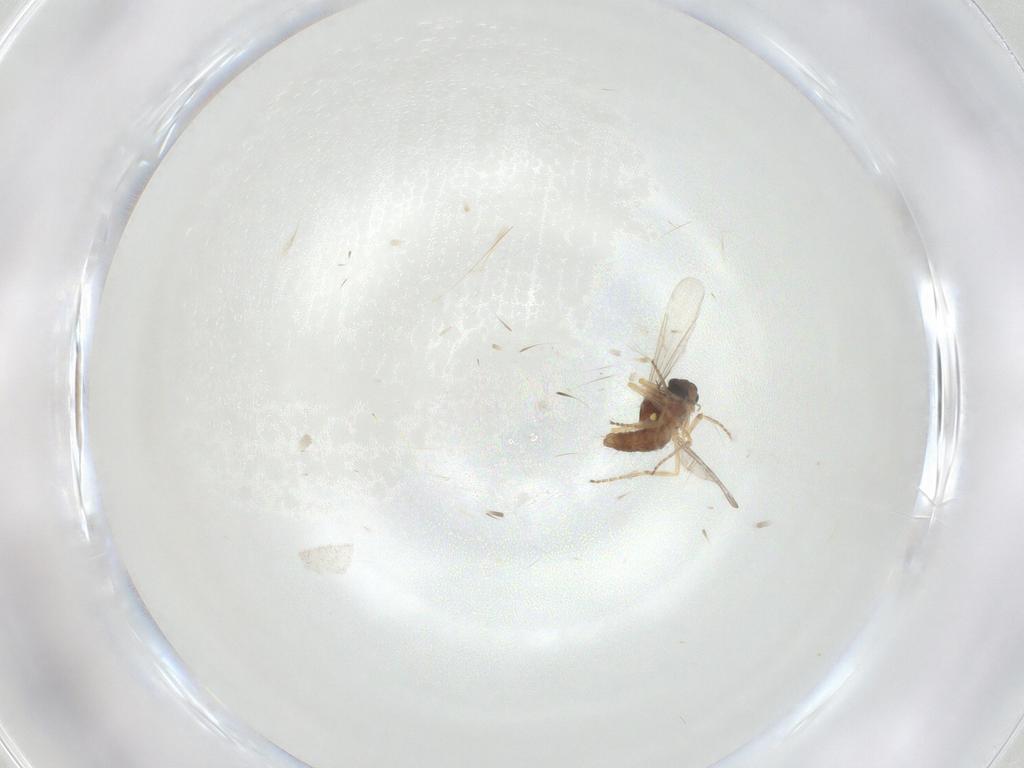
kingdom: Animalia
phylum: Arthropoda
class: Insecta
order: Diptera
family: Ceratopogonidae
